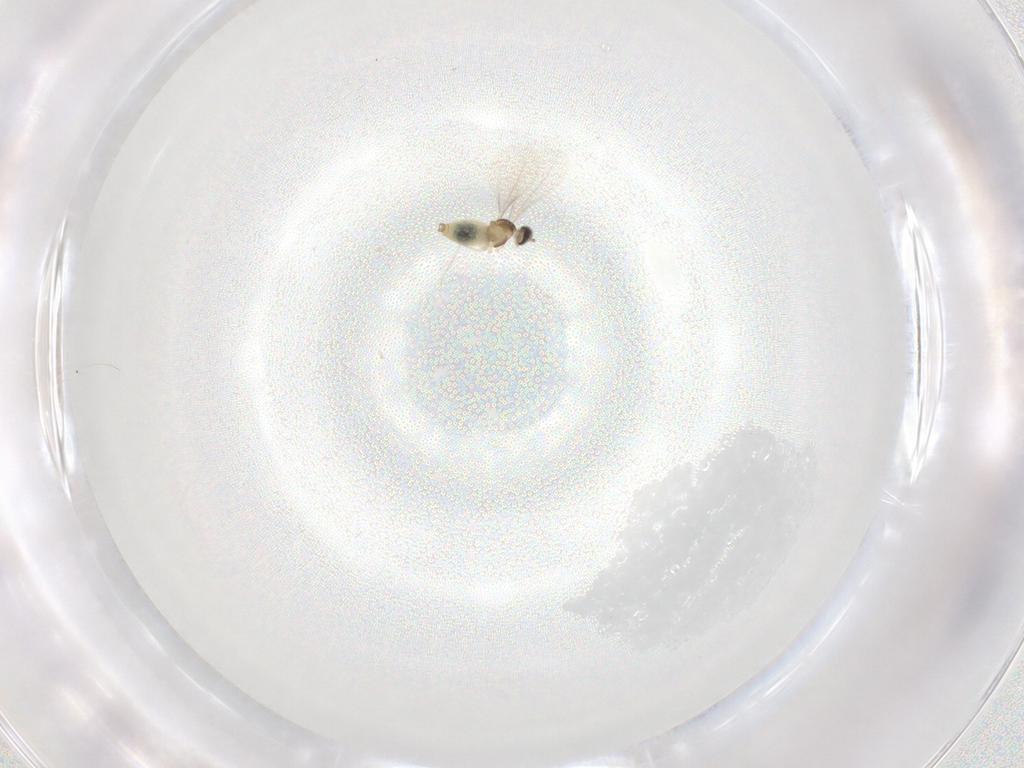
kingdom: Animalia
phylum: Arthropoda
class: Insecta
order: Diptera
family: Cecidomyiidae
